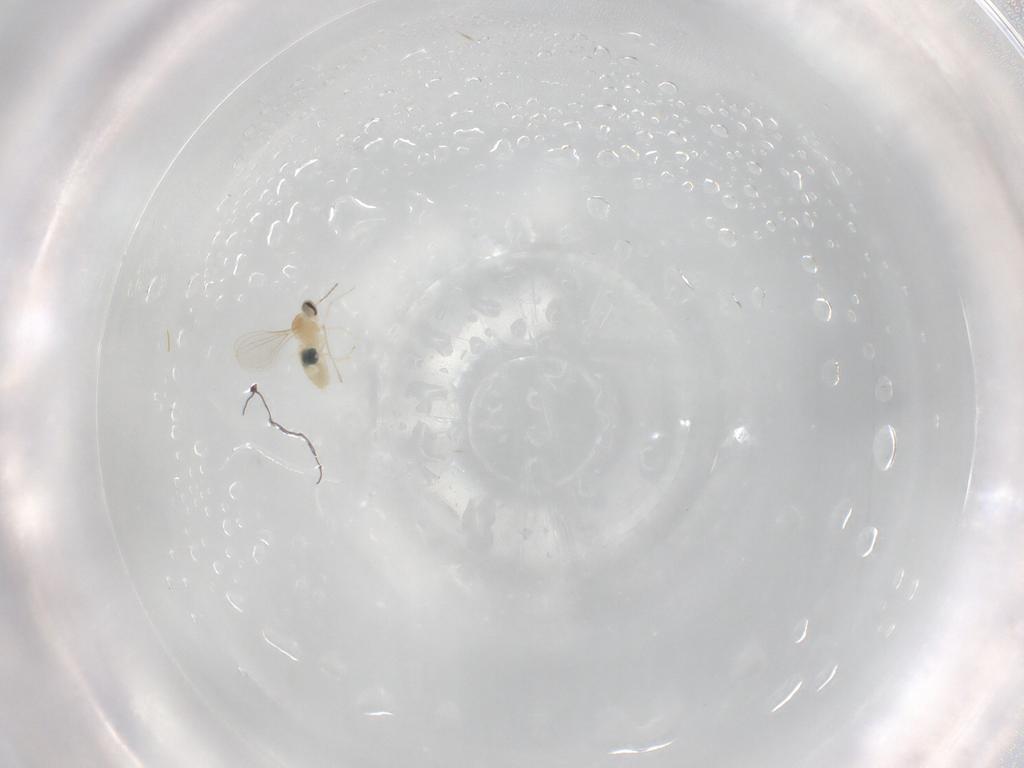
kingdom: Animalia
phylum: Arthropoda
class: Insecta
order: Diptera
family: Cecidomyiidae
